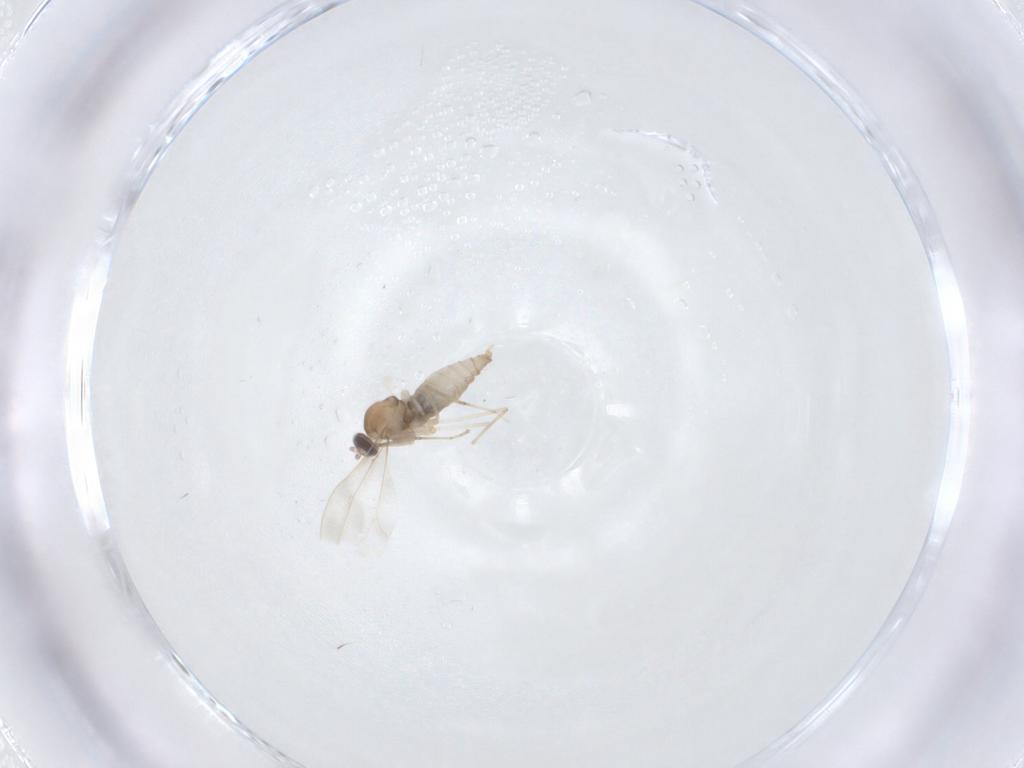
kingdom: Animalia
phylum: Arthropoda
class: Insecta
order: Diptera
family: Cecidomyiidae
